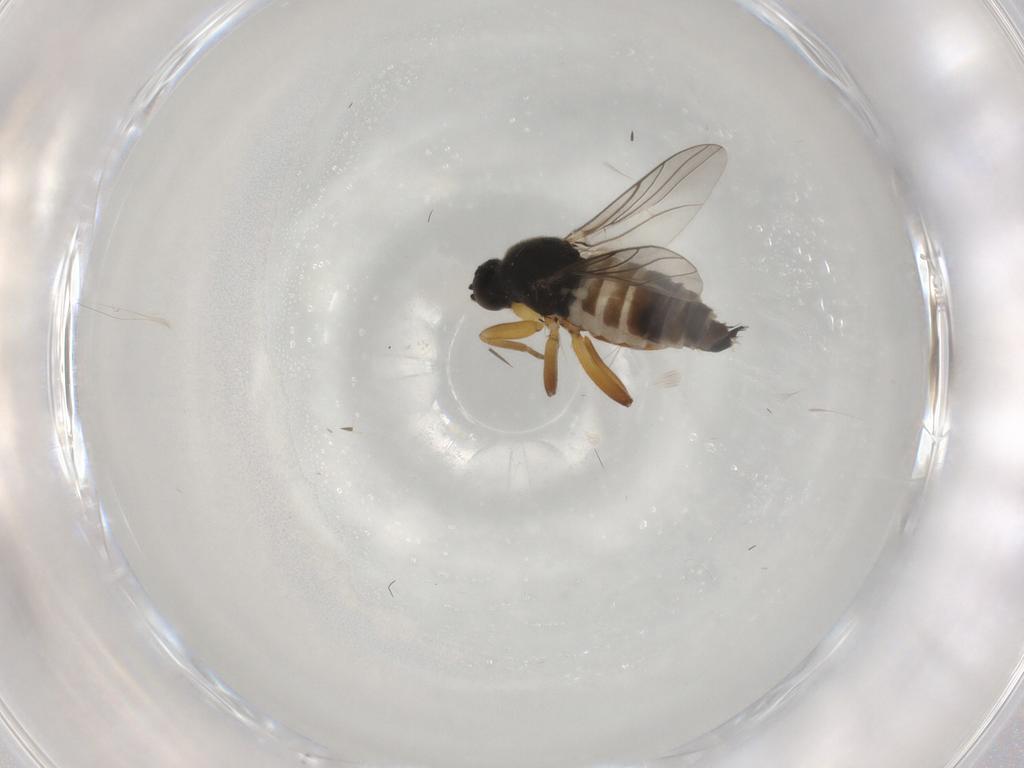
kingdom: Animalia
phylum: Arthropoda
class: Insecta
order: Diptera
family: Hybotidae
